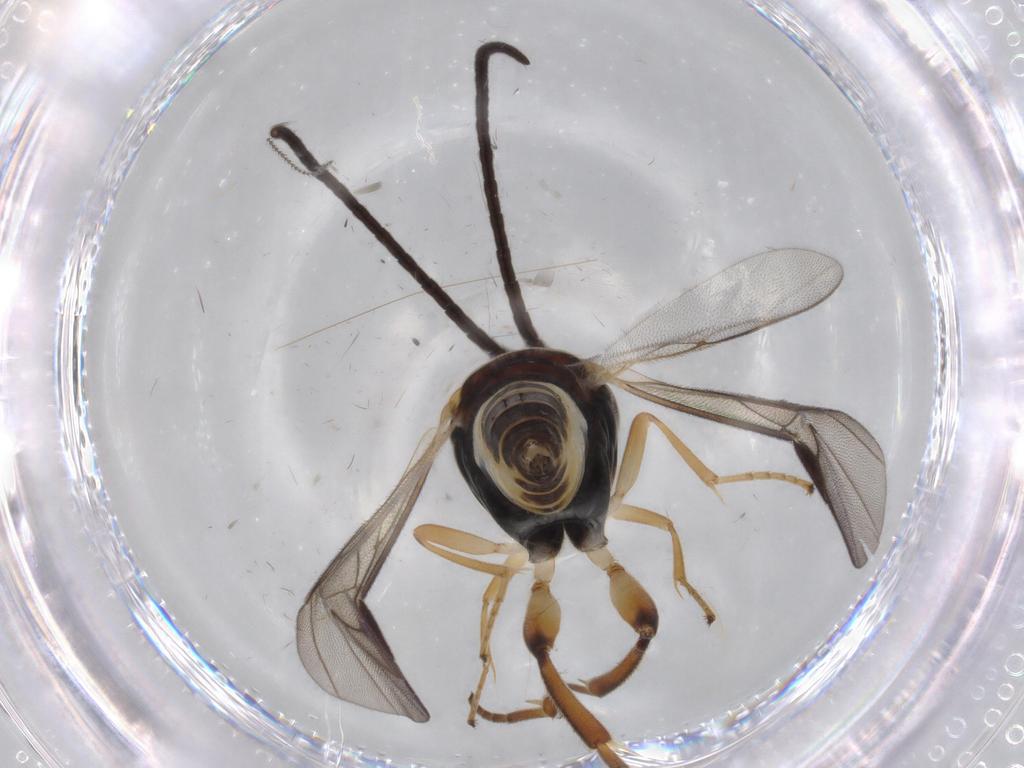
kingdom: Animalia
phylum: Arthropoda
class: Insecta
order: Hymenoptera
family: Braconidae
